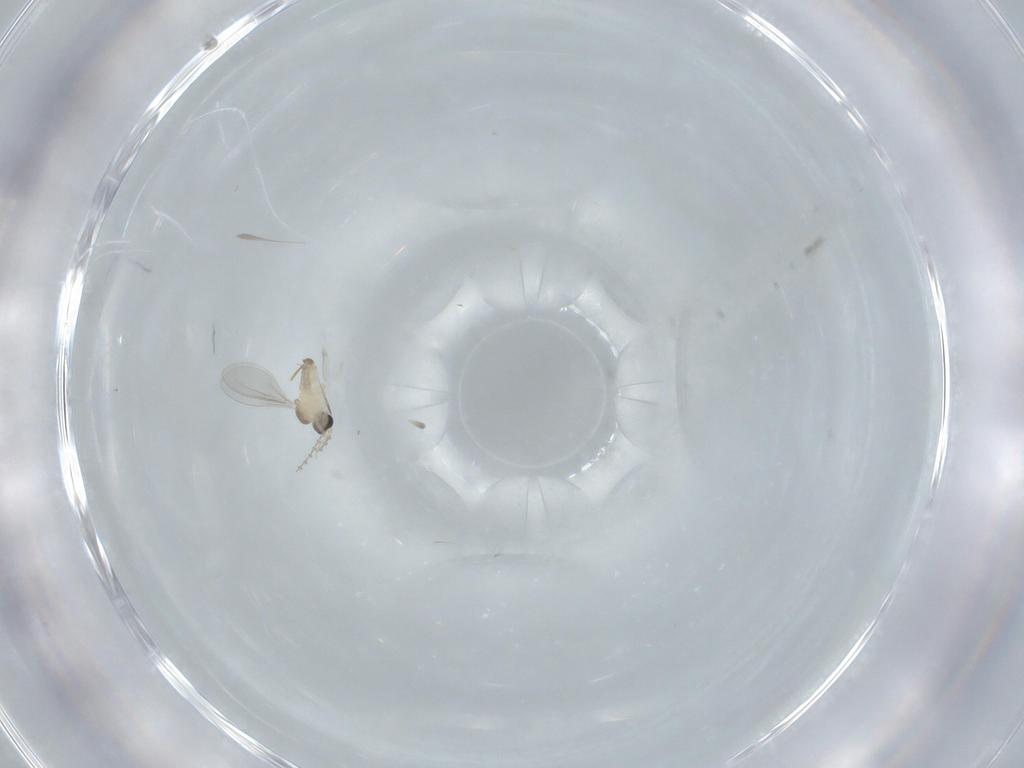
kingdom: Animalia
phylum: Arthropoda
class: Insecta
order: Diptera
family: Cecidomyiidae
